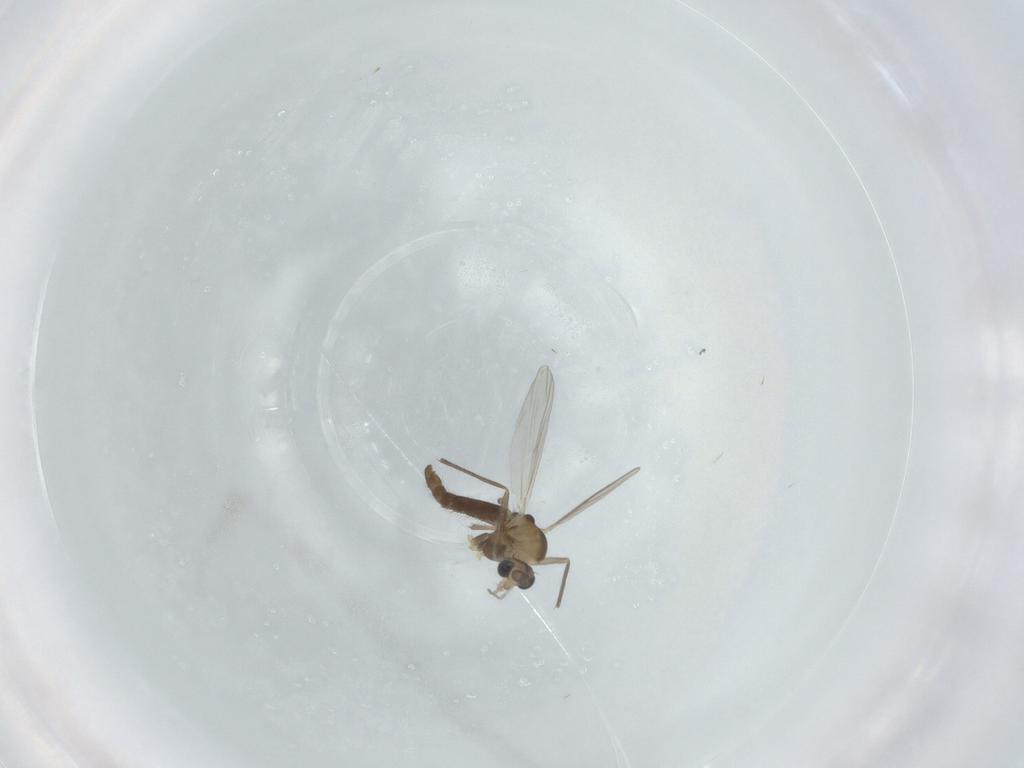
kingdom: Animalia
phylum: Arthropoda
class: Insecta
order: Diptera
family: Chironomidae
